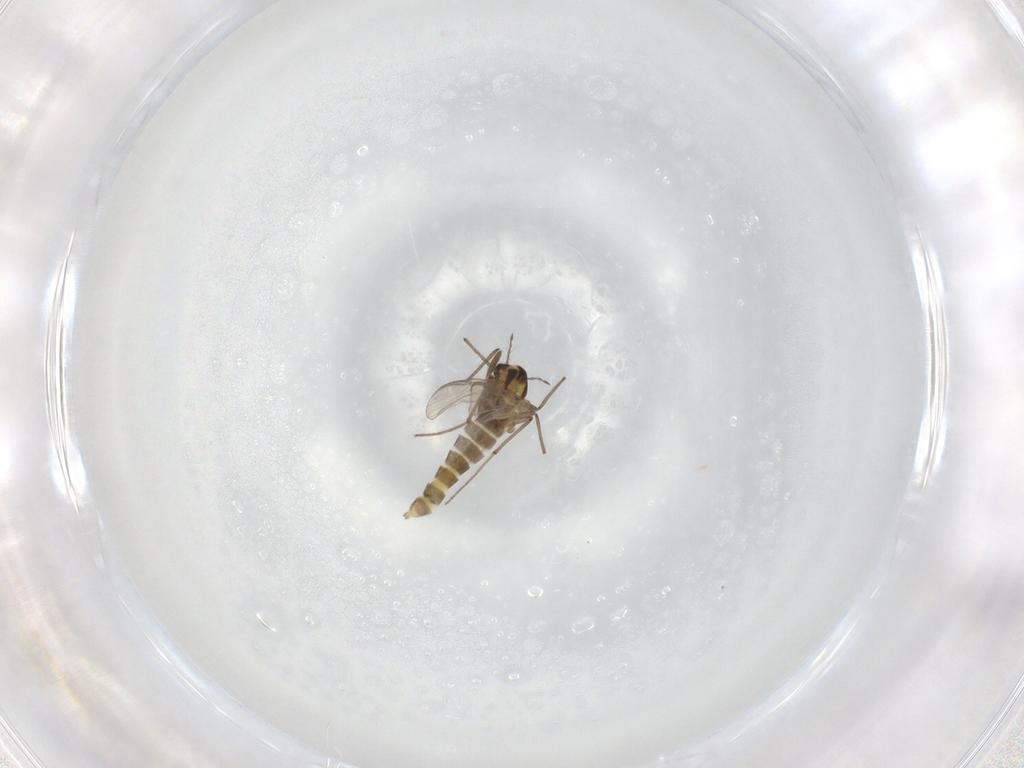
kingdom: Animalia
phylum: Arthropoda
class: Insecta
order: Diptera
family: Chironomidae
